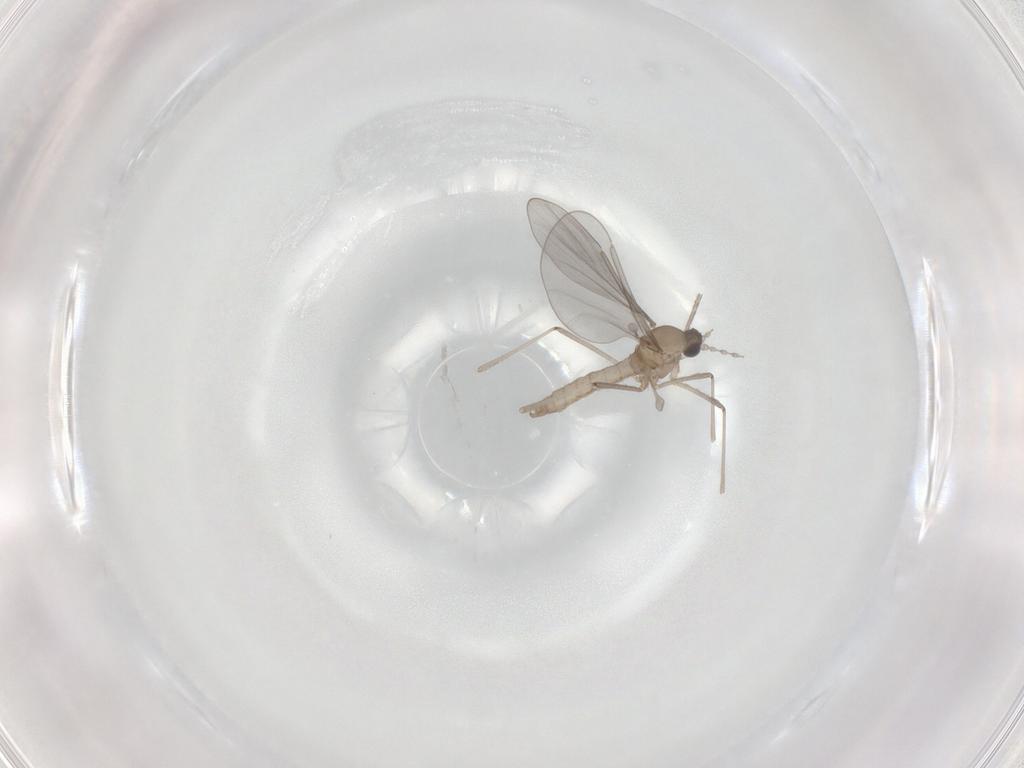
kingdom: Animalia
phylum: Arthropoda
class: Insecta
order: Diptera
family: Cecidomyiidae
